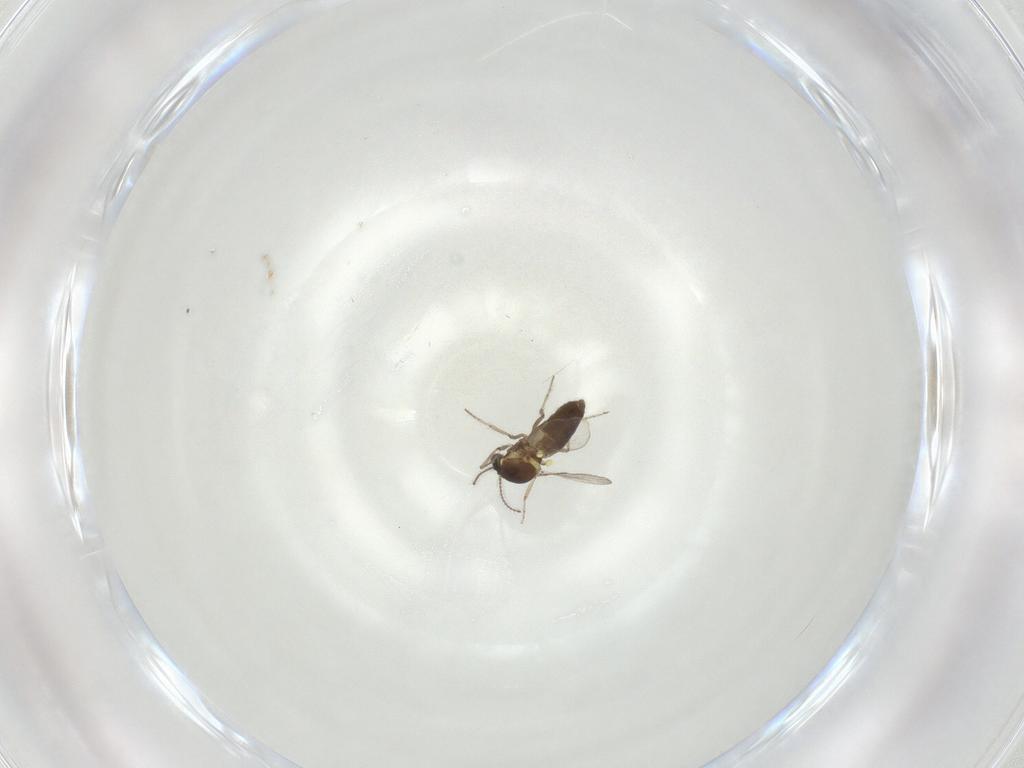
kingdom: Animalia
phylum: Arthropoda
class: Insecta
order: Diptera
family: Ceratopogonidae
